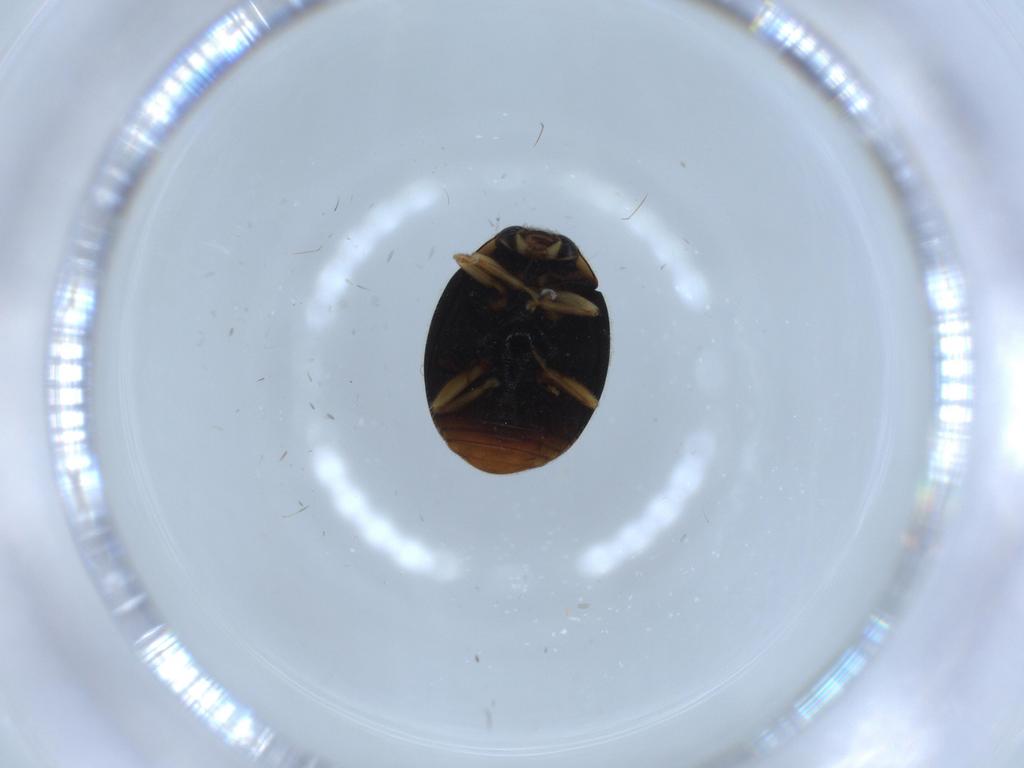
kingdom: Animalia
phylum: Arthropoda
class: Insecta
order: Coleoptera
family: Coccinellidae
